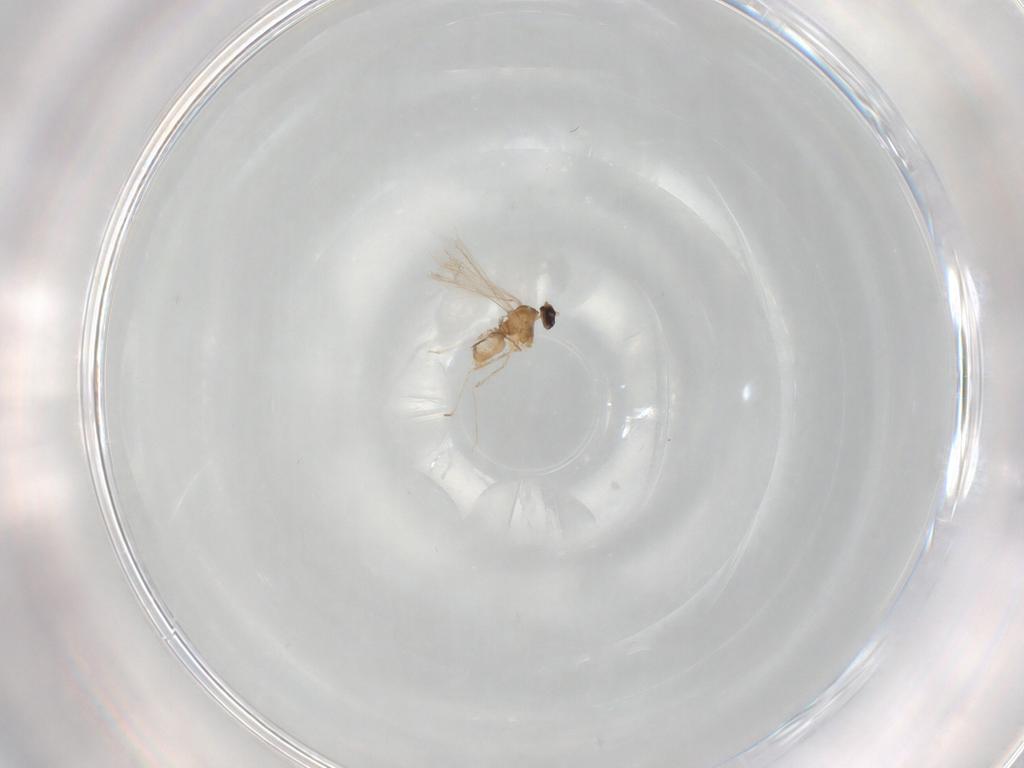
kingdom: Animalia
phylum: Arthropoda
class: Insecta
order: Diptera
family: Cecidomyiidae
